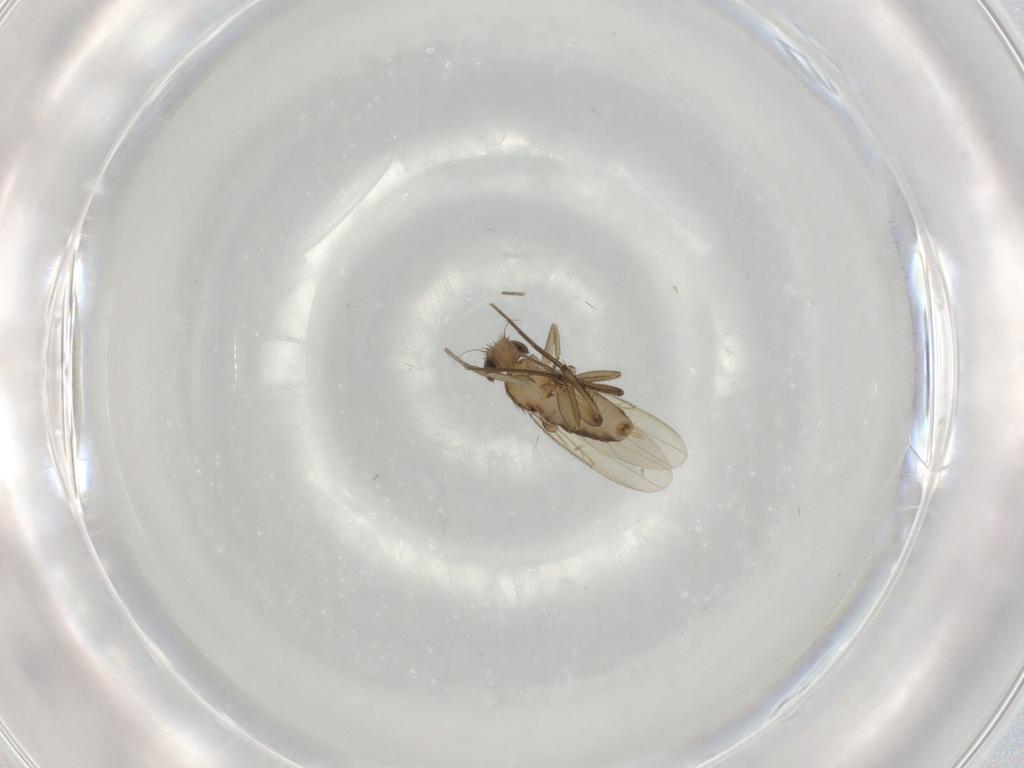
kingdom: Animalia
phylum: Arthropoda
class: Insecta
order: Diptera
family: Phoridae
